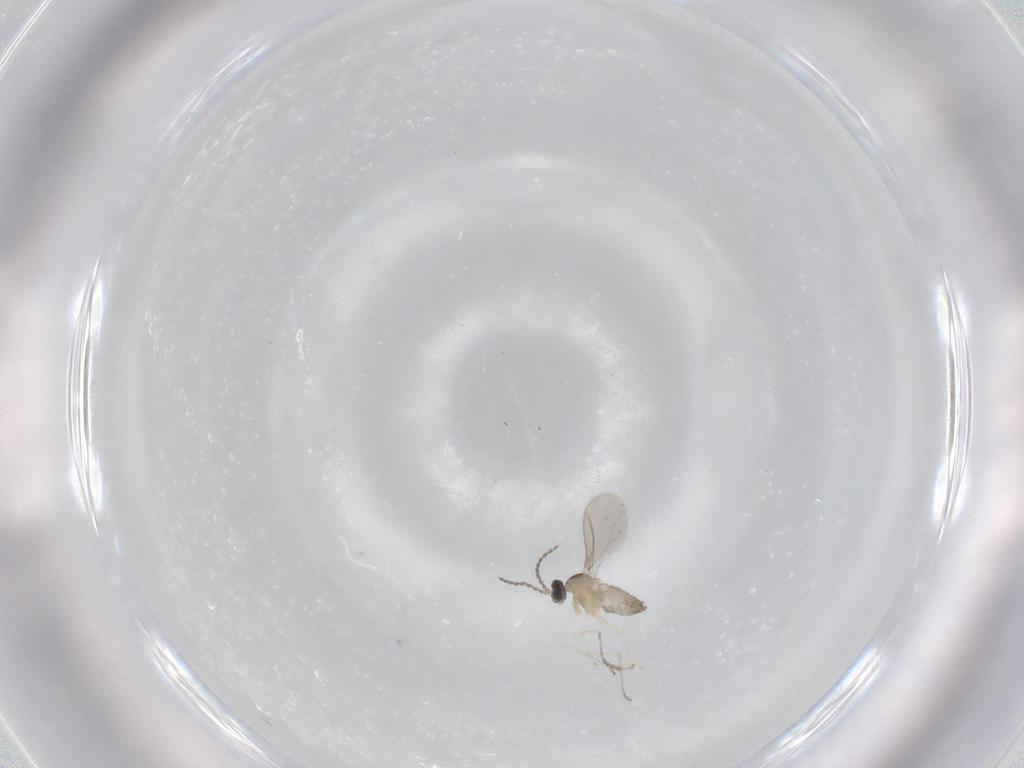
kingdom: Animalia
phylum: Arthropoda
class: Insecta
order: Diptera
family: Cecidomyiidae
